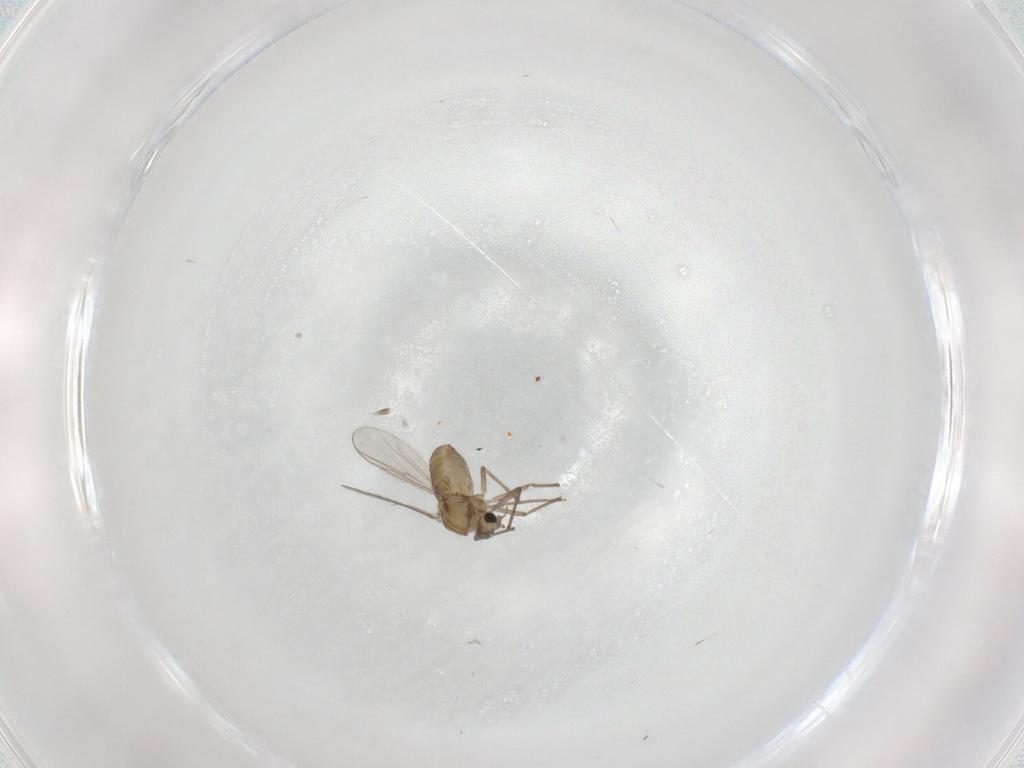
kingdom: Animalia
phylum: Arthropoda
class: Insecta
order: Diptera
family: Chironomidae
